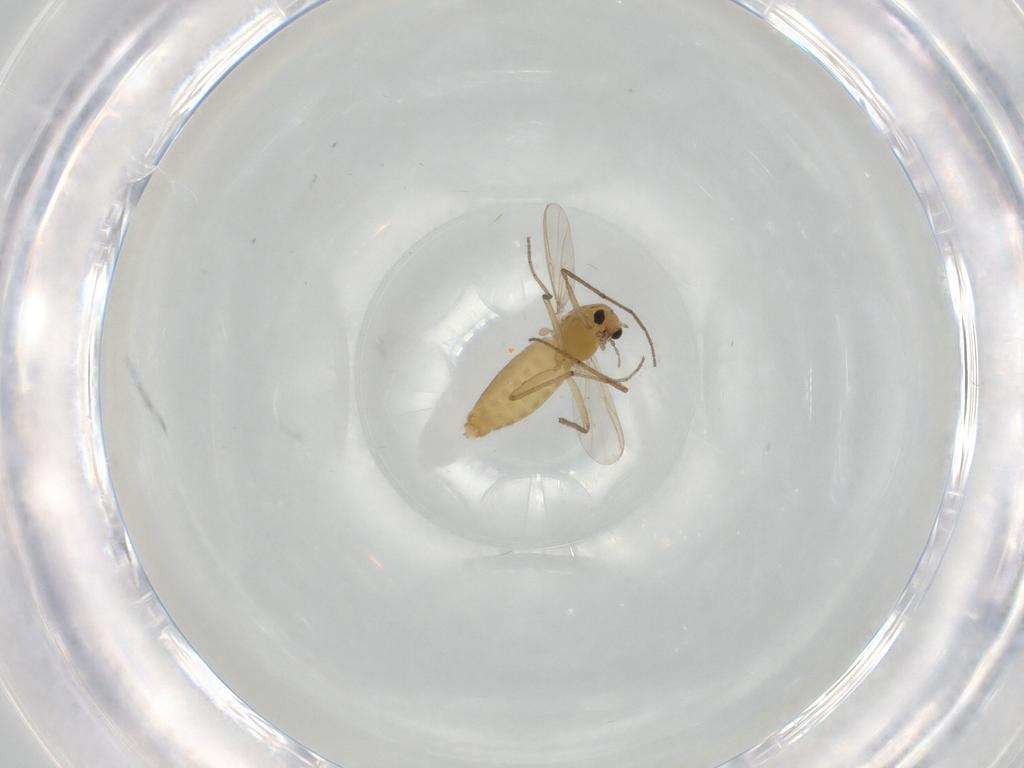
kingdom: Animalia
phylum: Arthropoda
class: Insecta
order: Diptera
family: Chironomidae
